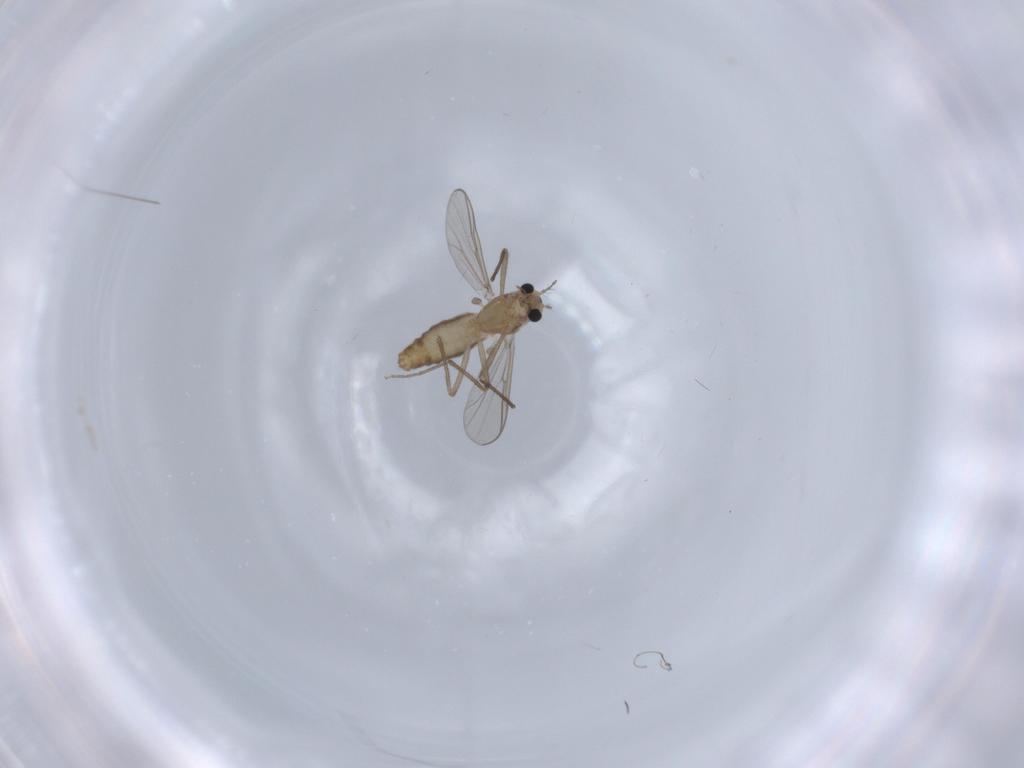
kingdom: Animalia
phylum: Arthropoda
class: Insecta
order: Diptera
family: Chironomidae
